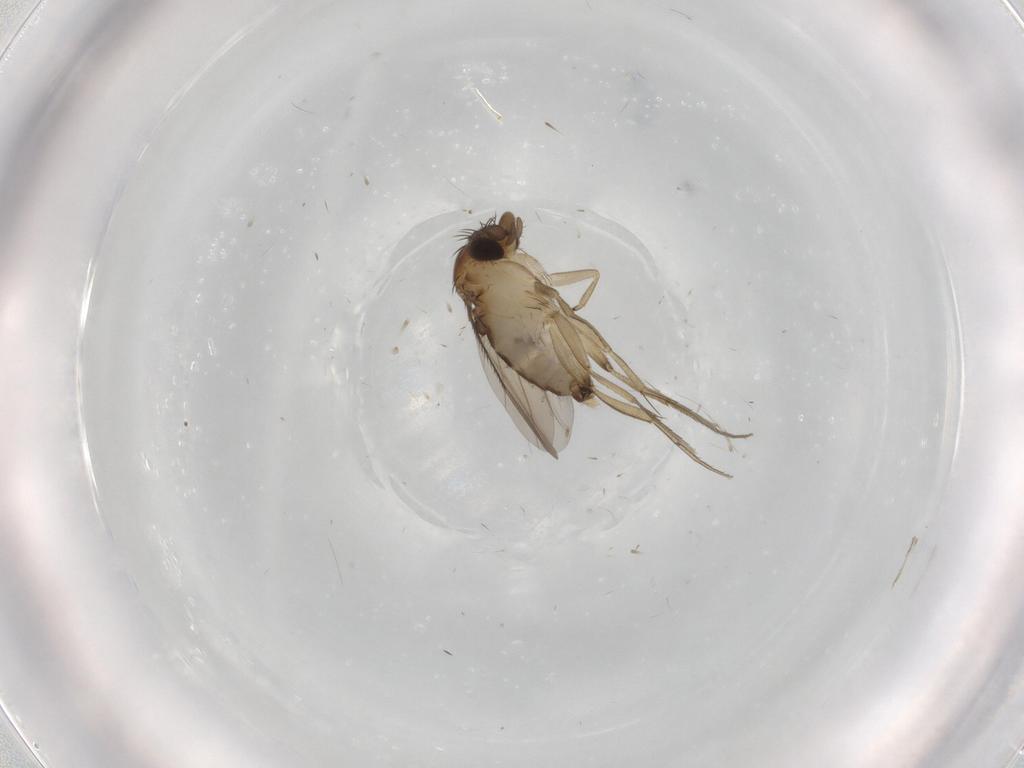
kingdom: Animalia
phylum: Arthropoda
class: Insecta
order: Diptera
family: Phoridae
